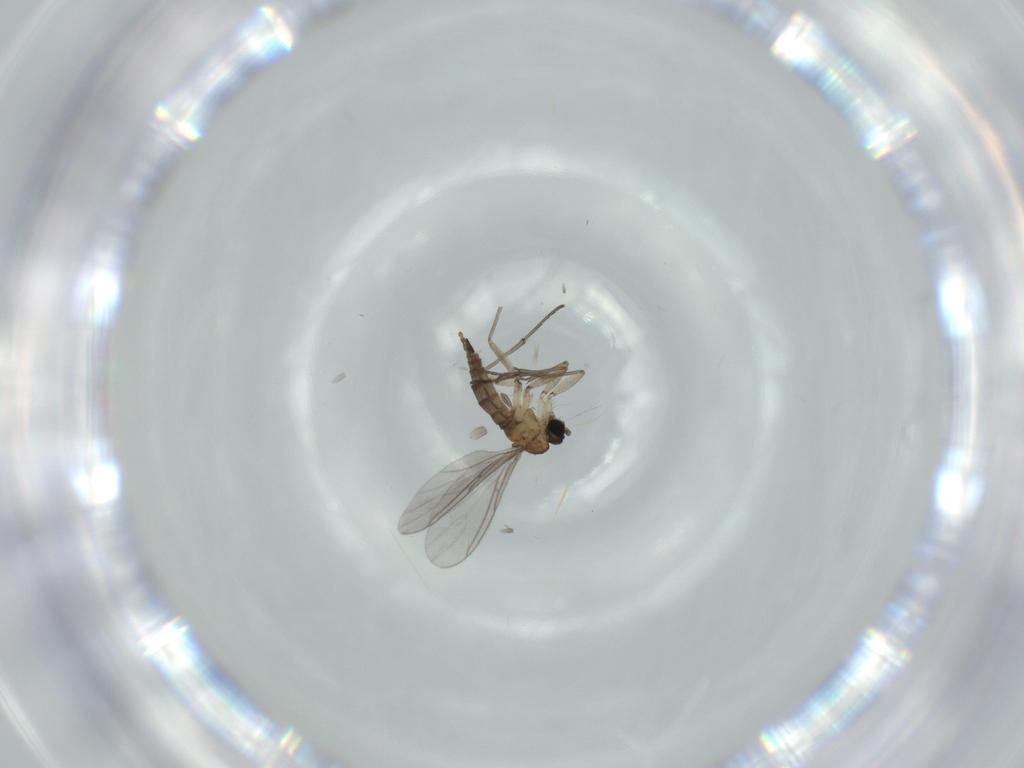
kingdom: Animalia
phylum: Arthropoda
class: Insecta
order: Diptera
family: Sciaridae
